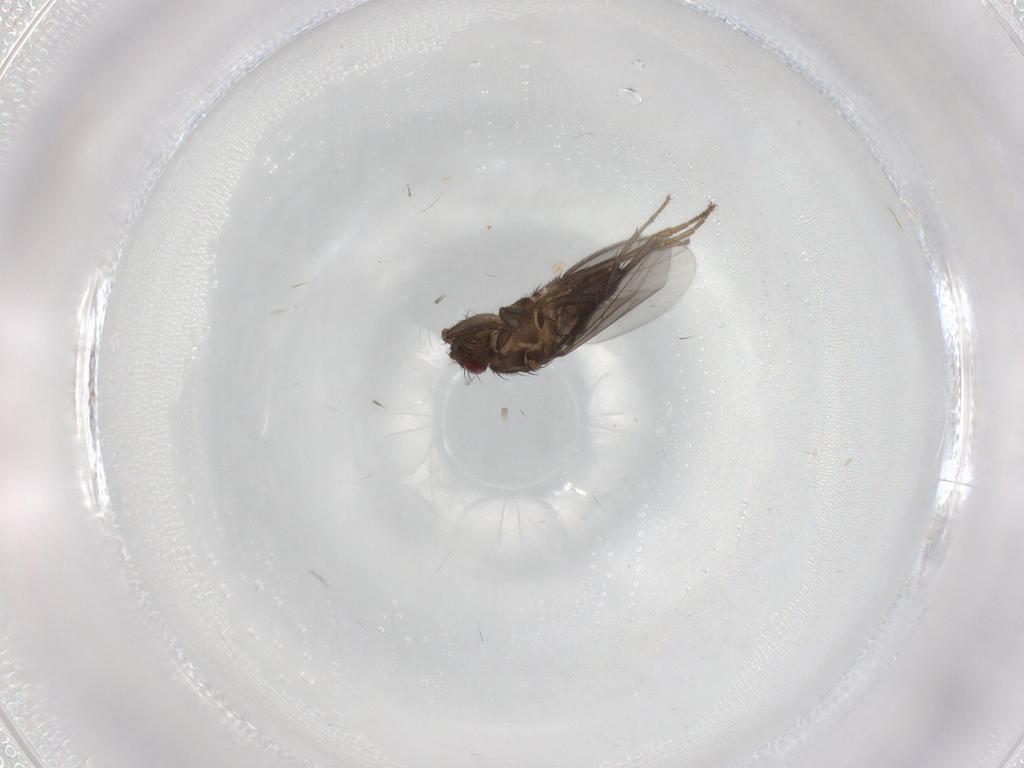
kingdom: Animalia
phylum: Arthropoda
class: Insecta
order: Diptera
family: Sphaeroceridae
